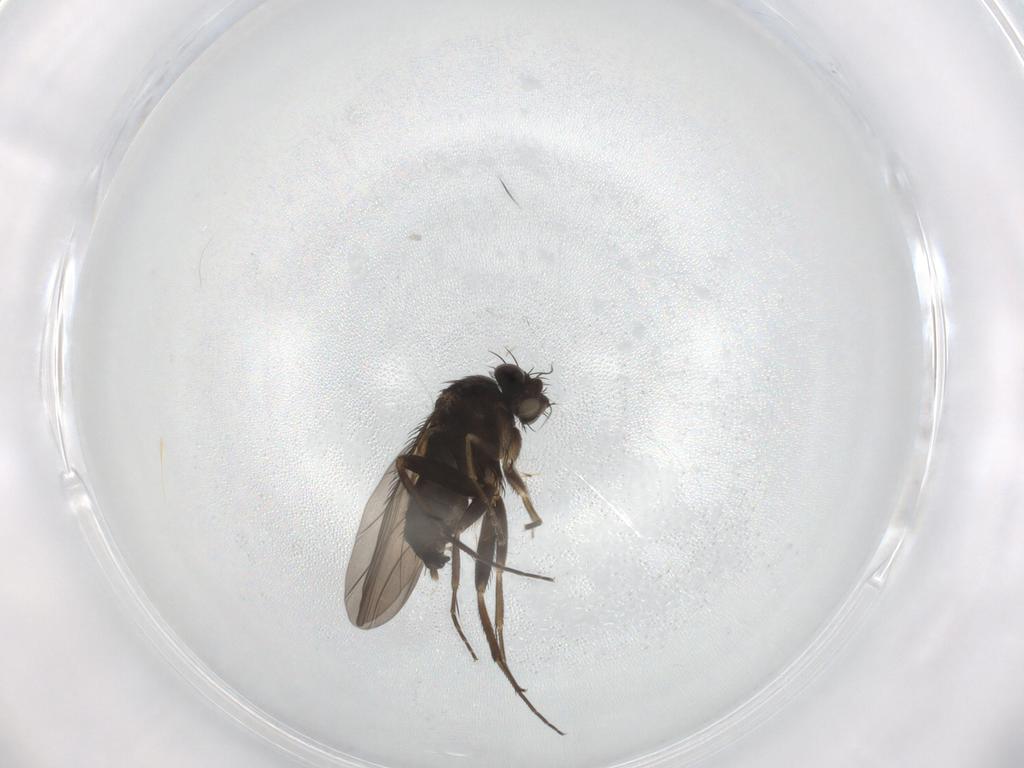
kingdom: Animalia
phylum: Arthropoda
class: Insecta
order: Diptera
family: Phoridae
